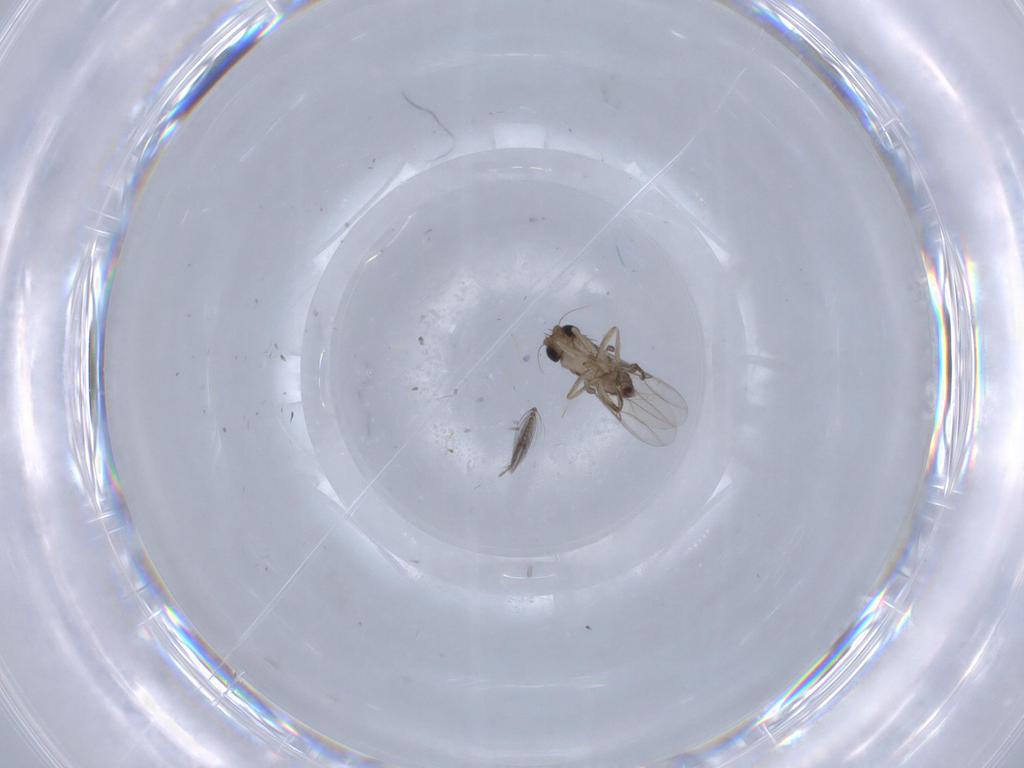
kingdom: Animalia
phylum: Arthropoda
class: Insecta
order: Diptera
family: Phoridae
